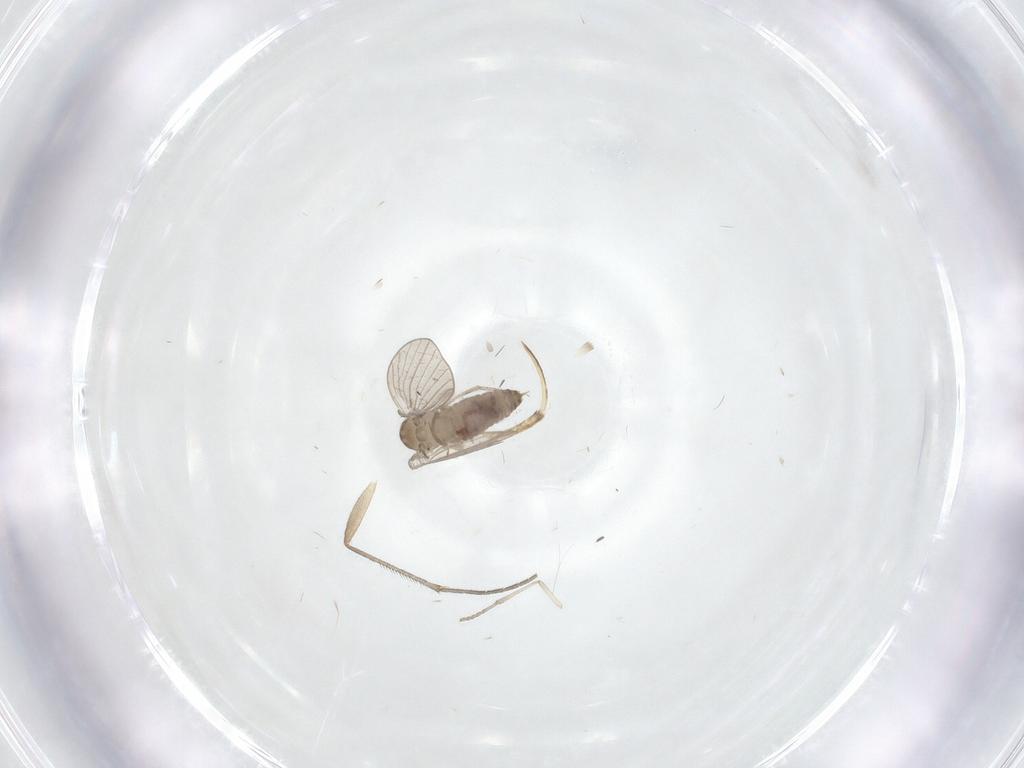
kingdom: Animalia
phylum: Arthropoda
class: Insecta
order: Diptera
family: Psychodidae
